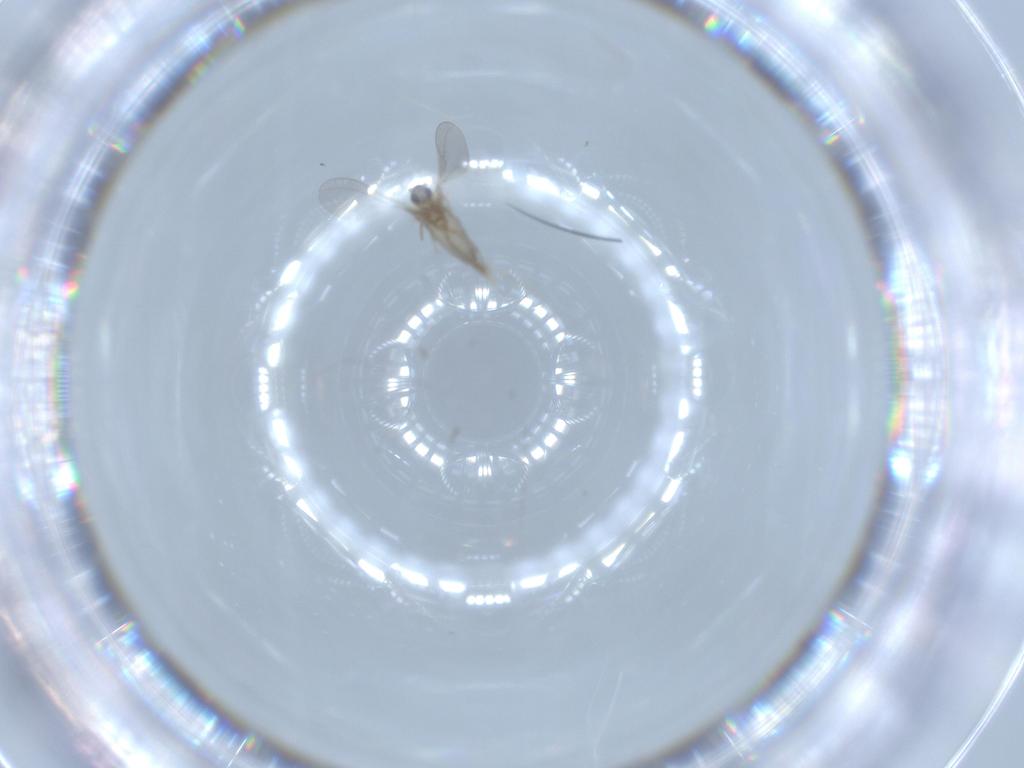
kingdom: Animalia
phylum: Arthropoda
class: Insecta
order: Diptera
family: Cecidomyiidae
